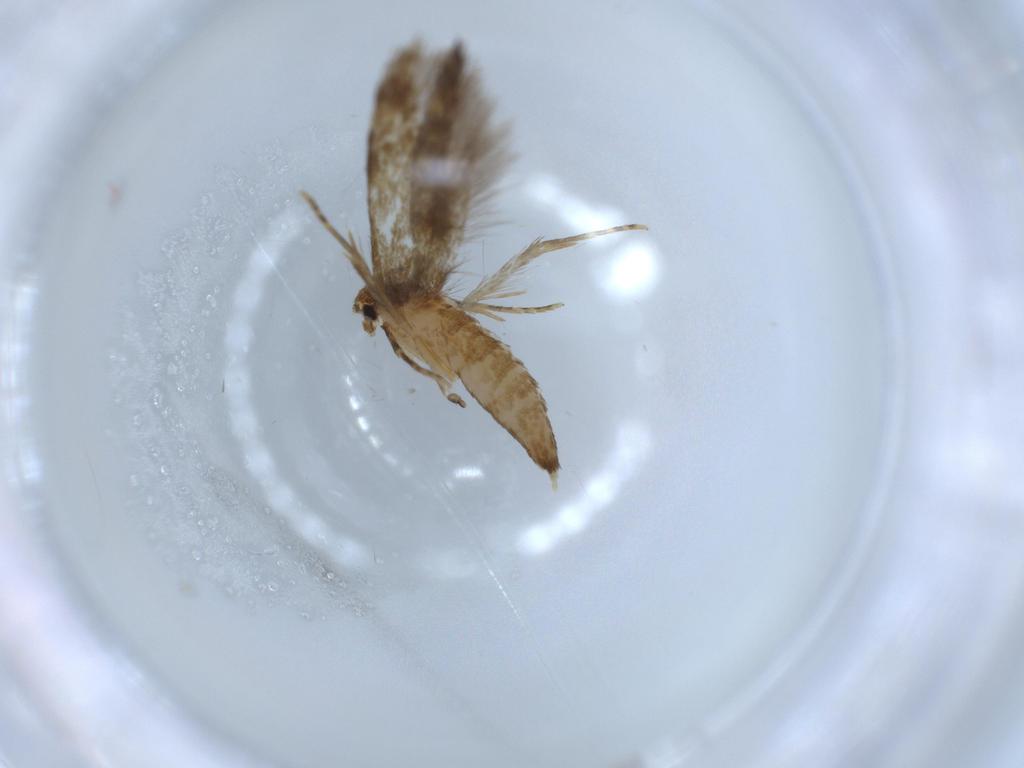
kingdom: Animalia
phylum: Arthropoda
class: Insecta
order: Lepidoptera
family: Tineidae
